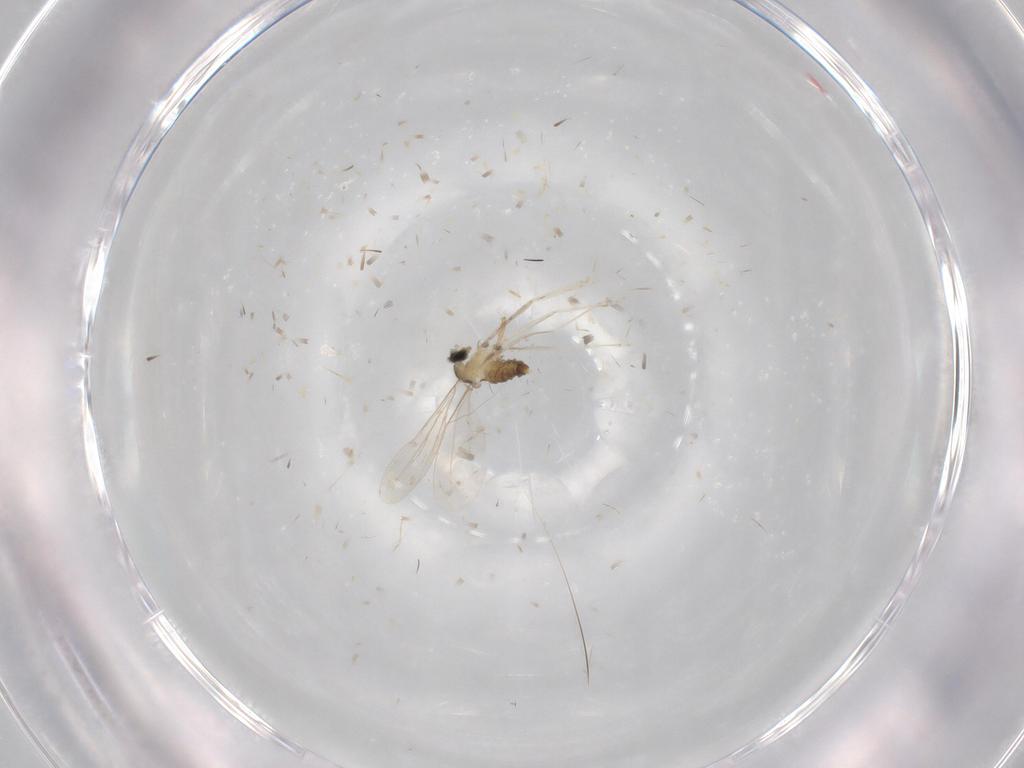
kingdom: Animalia
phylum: Arthropoda
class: Insecta
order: Diptera
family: Cecidomyiidae
